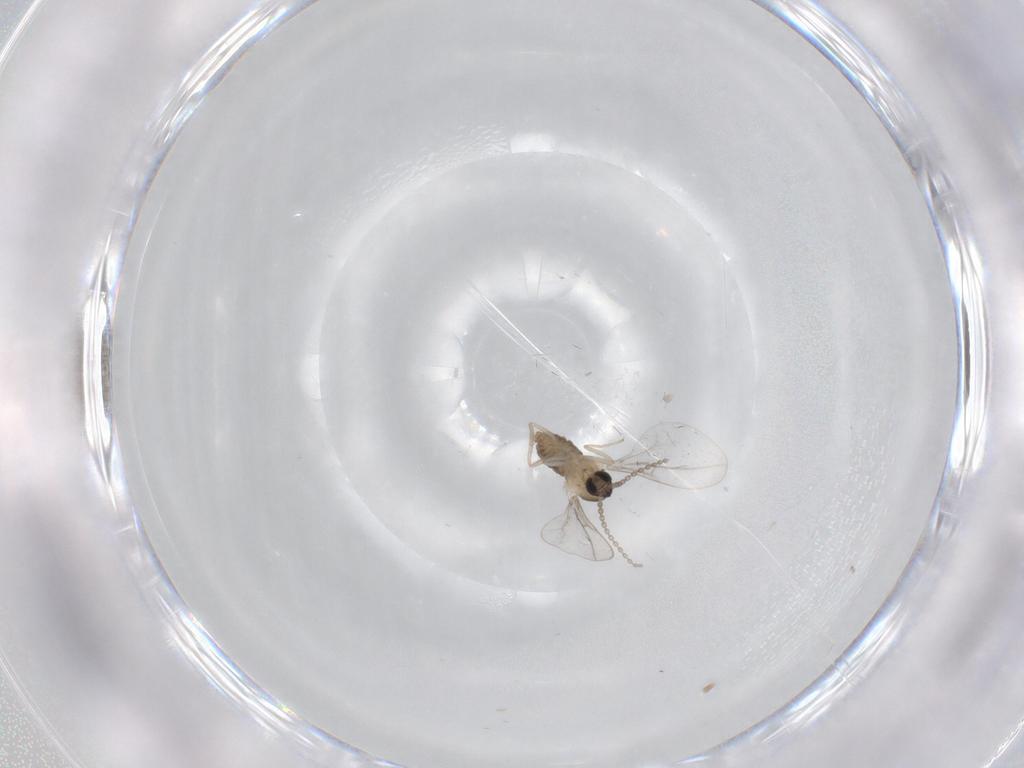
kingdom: Animalia
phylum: Arthropoda
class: Insecta
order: Diptera
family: Cecidomyiidae
